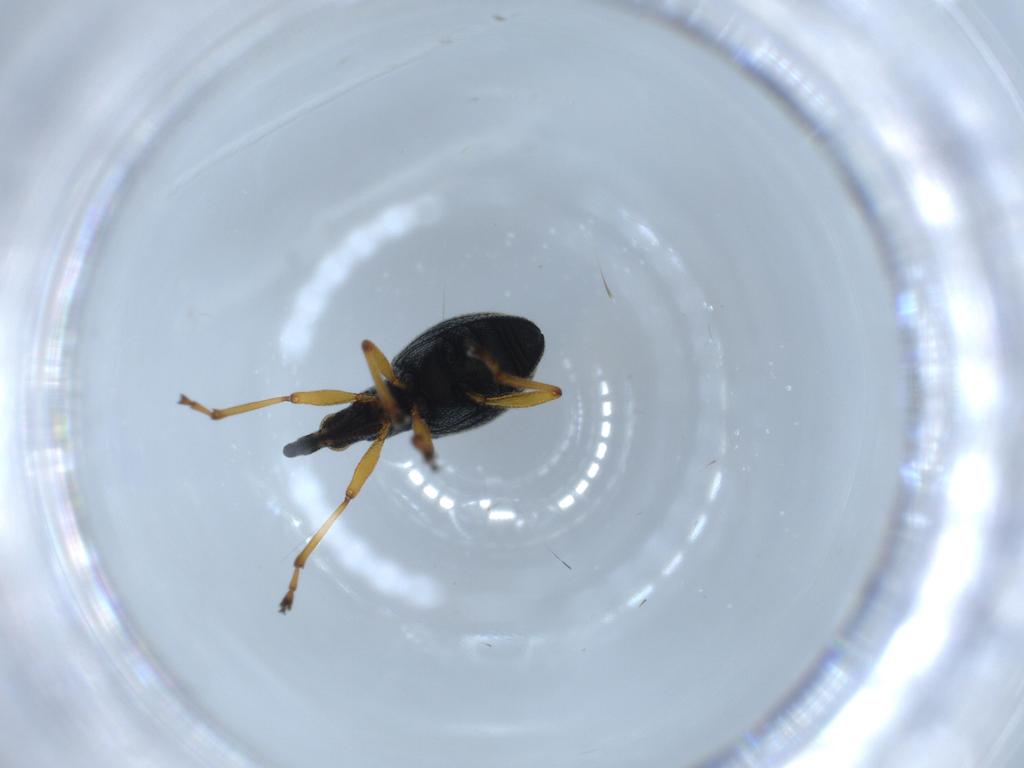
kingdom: Animalia
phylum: Arthropoda
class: Insecta
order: Coleoptera
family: Brentidae
